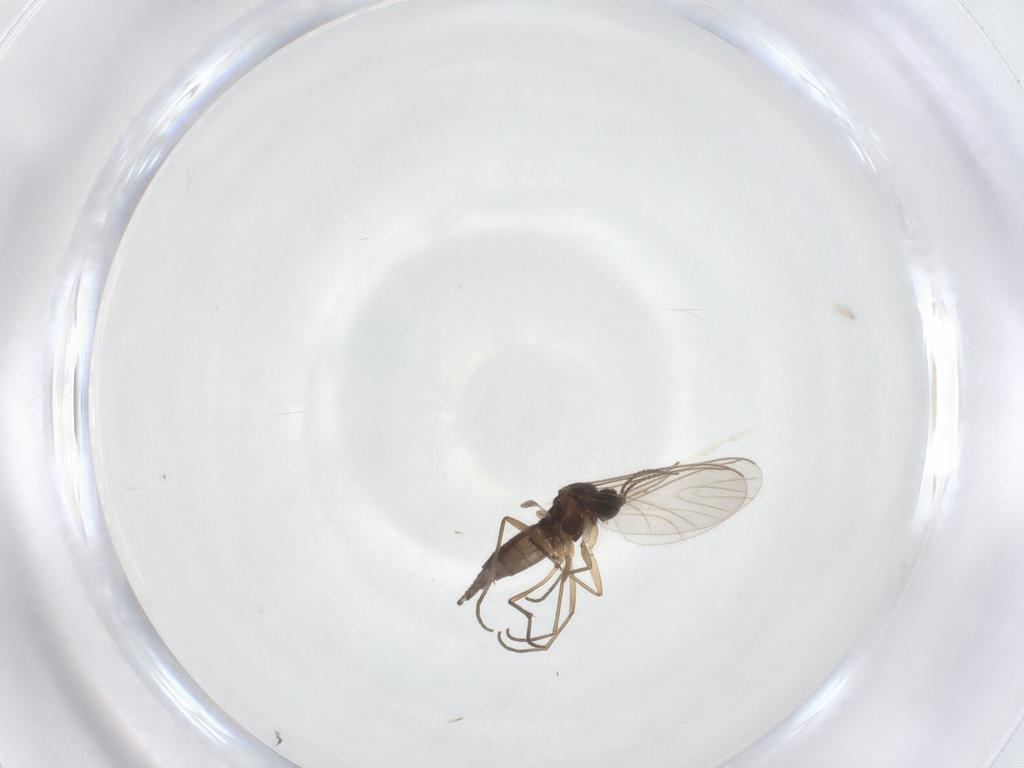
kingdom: Animalia
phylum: Arthropoda
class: Insecta
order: Diptera
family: Sciaridae
